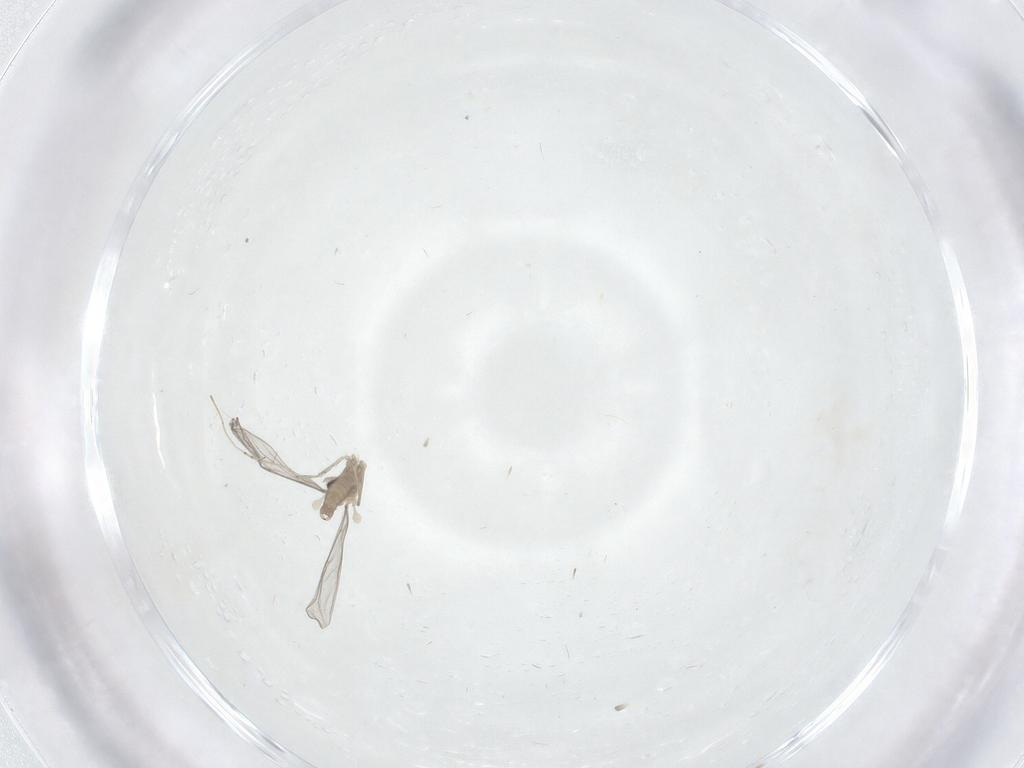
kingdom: Animalia
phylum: Arthropoda
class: Insecta
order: Diptera
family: Cecidomyiidae
